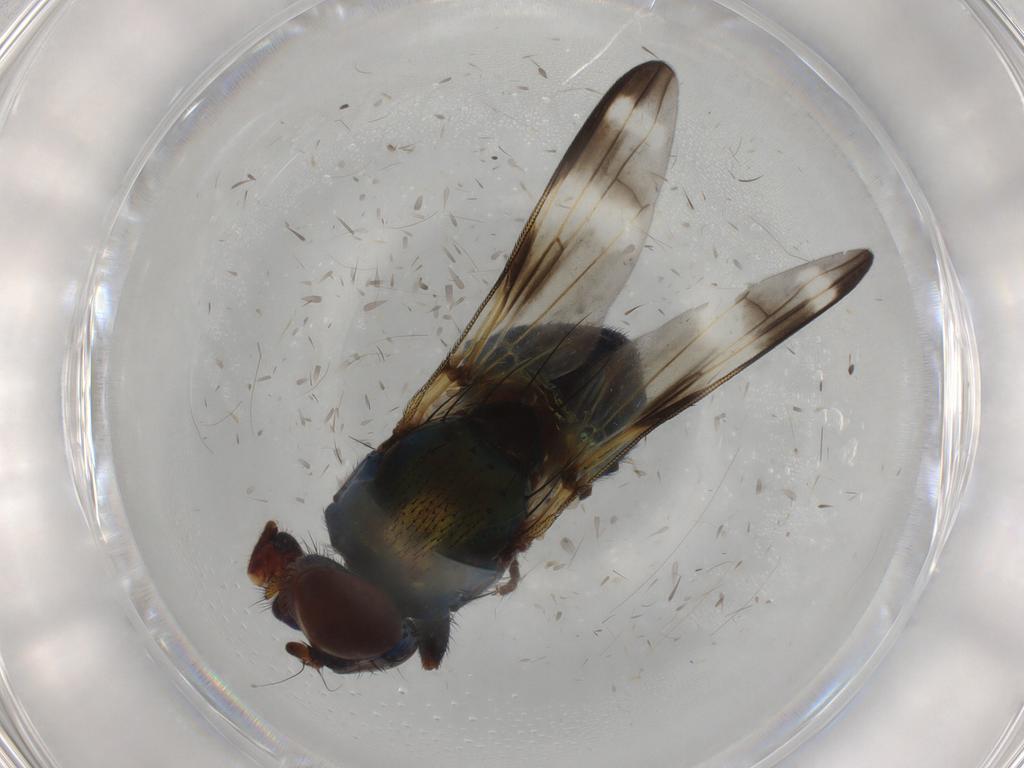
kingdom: Animalia
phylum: Arthropoda
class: Insecta
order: Diptera
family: Ulidiidae
